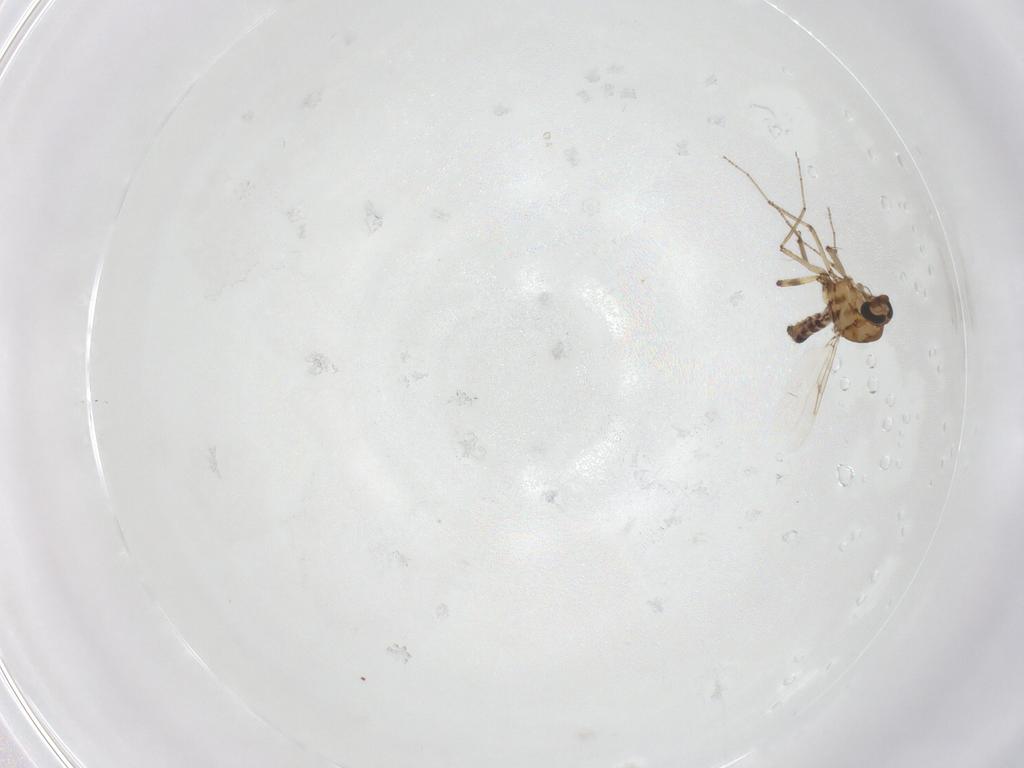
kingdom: Animalia
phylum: Arthropoda
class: Insecta
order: Diptera
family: Ceratopogonidae
